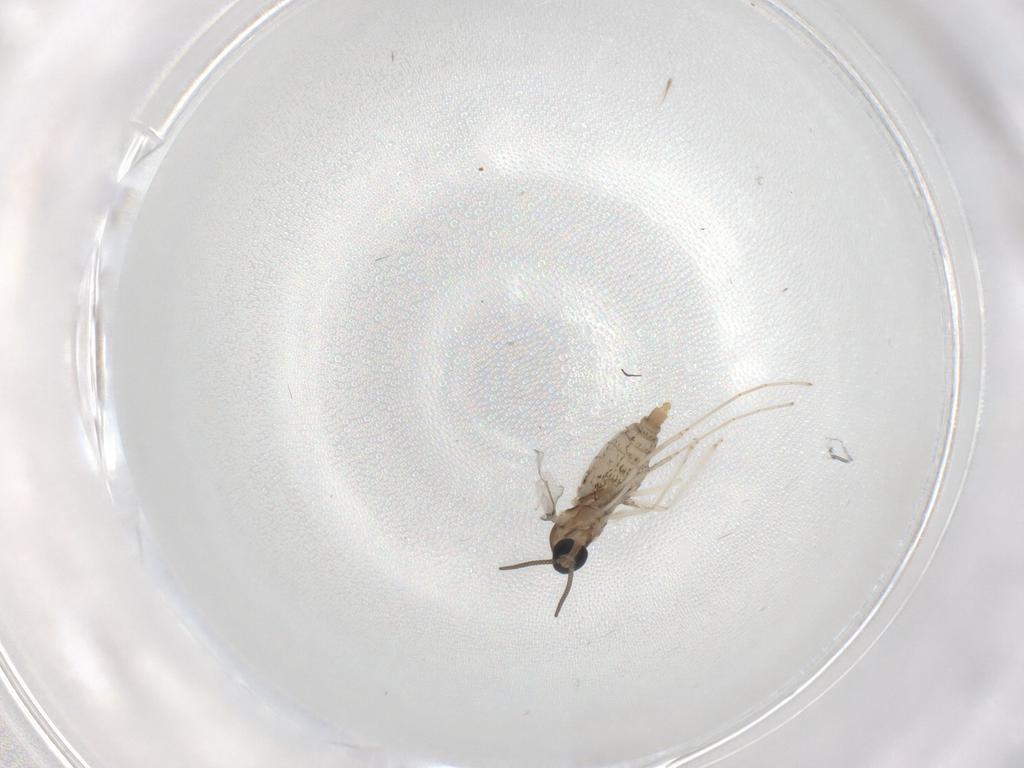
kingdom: Animalia
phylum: Arthropoda
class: Insecta
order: Diptera
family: Cecidomyiidae
